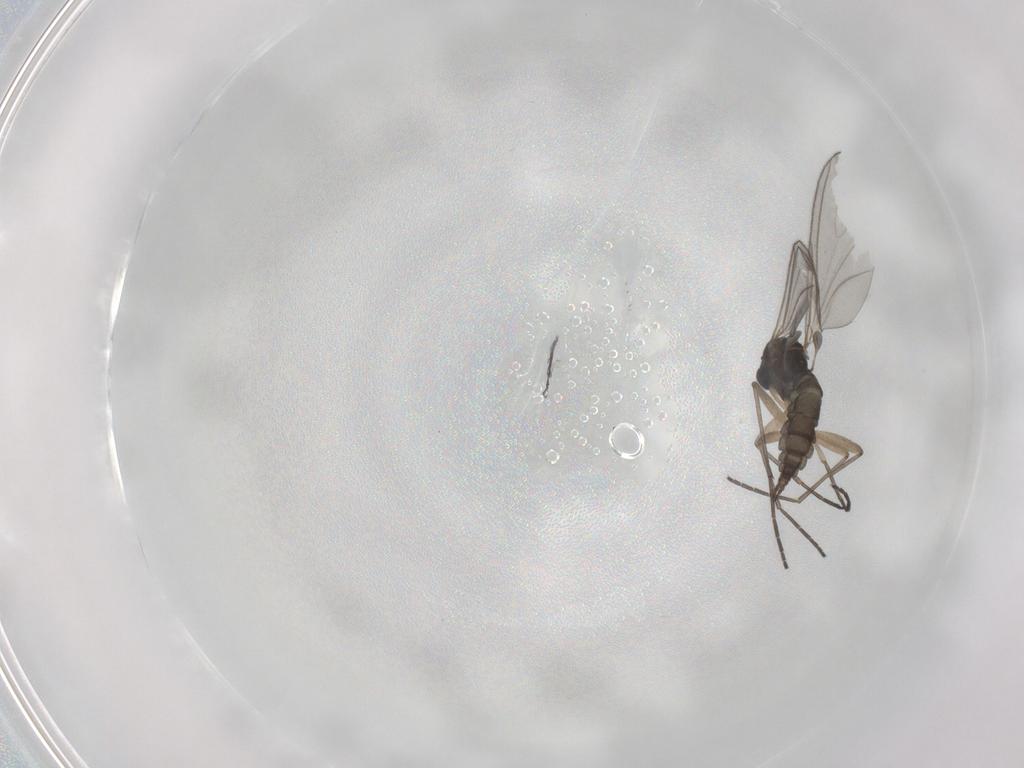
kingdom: Animalia
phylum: Arthropoda
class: Insecta
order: Diptera
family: Sciaridae
